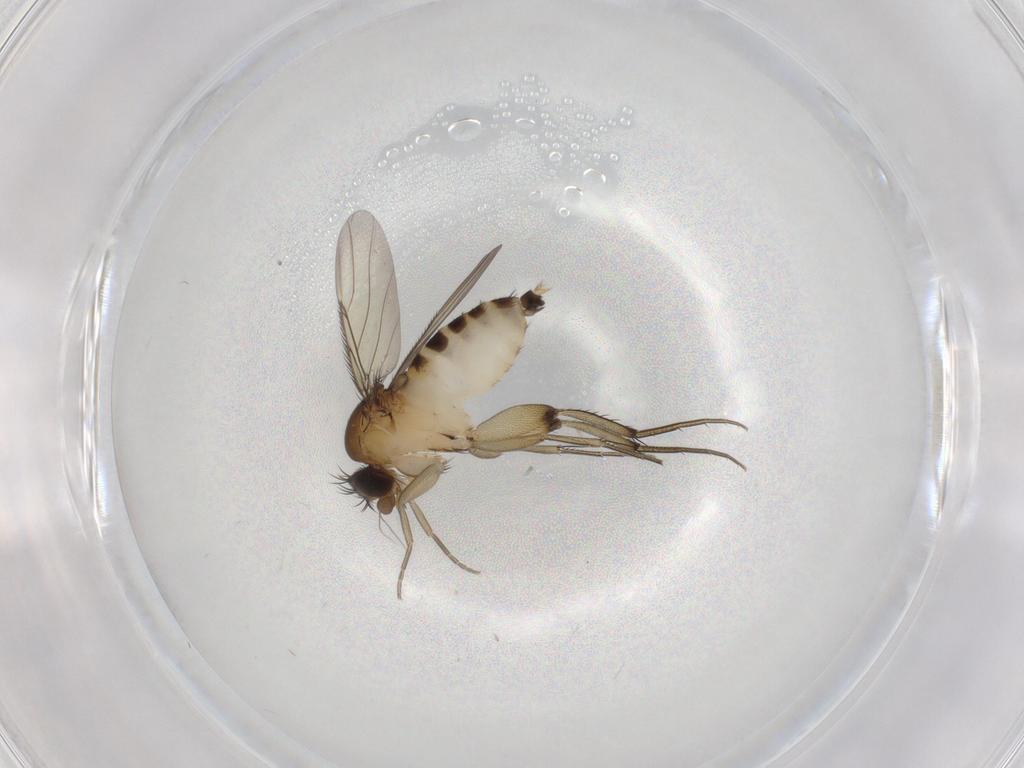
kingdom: Animalia
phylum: Arthropoda
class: Insecta
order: Diptera
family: Phoridae
